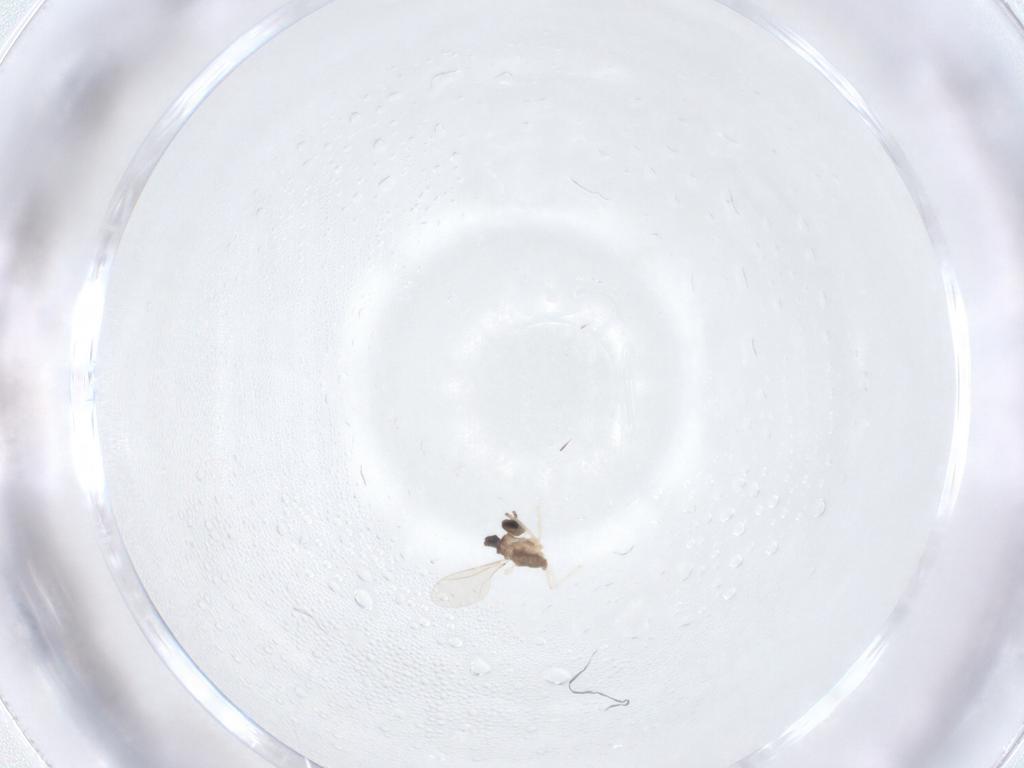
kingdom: Animalia
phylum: Arthropoda
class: Insecta
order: Diptera
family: Cecidomyiidae
